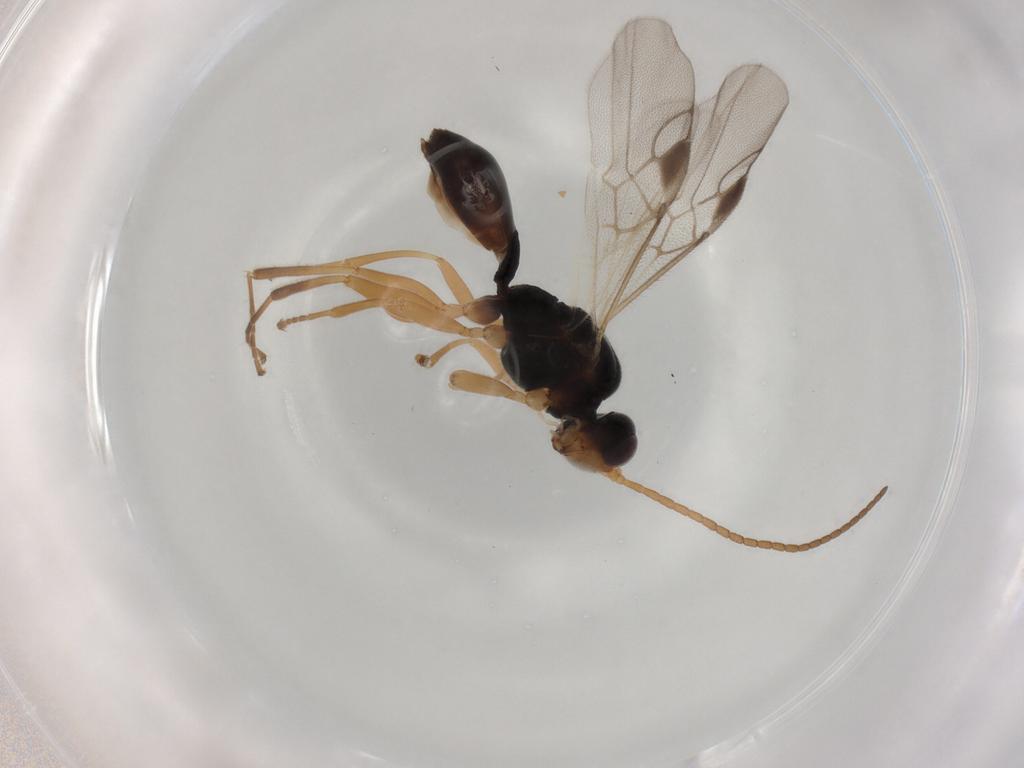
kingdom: Animalia
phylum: Arthropoda
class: Insecta
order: Hymenoptera
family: Braconidae
